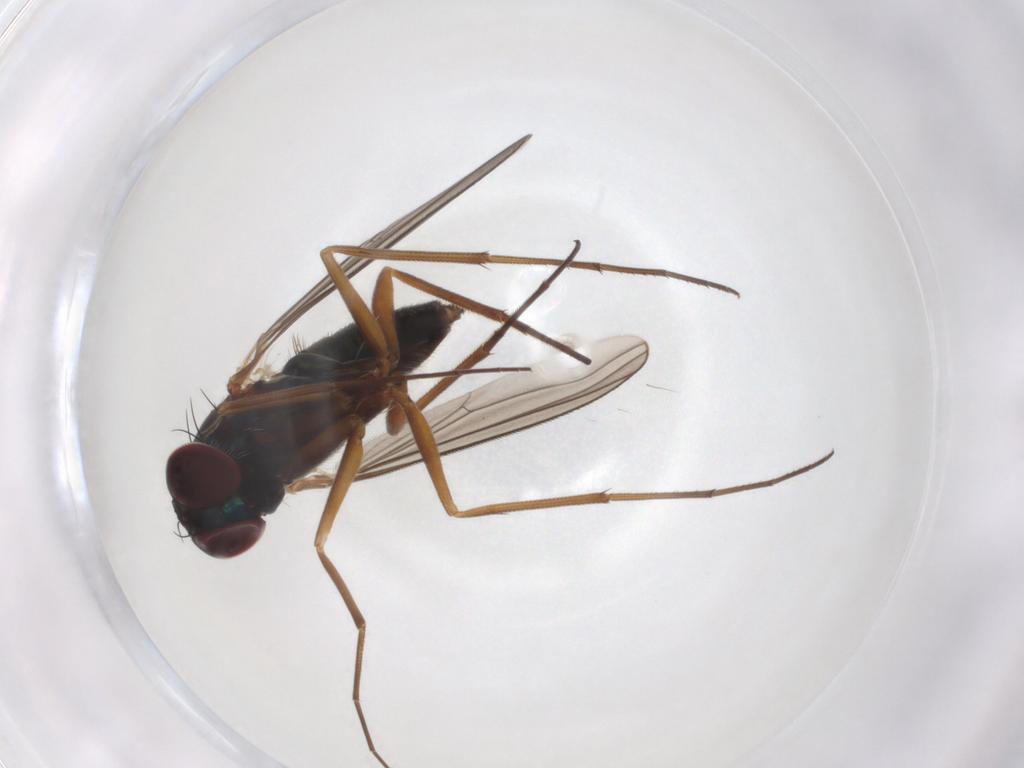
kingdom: Animalia
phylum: Arthropoda
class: Insecta
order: Diptera
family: Dolichopodidae
